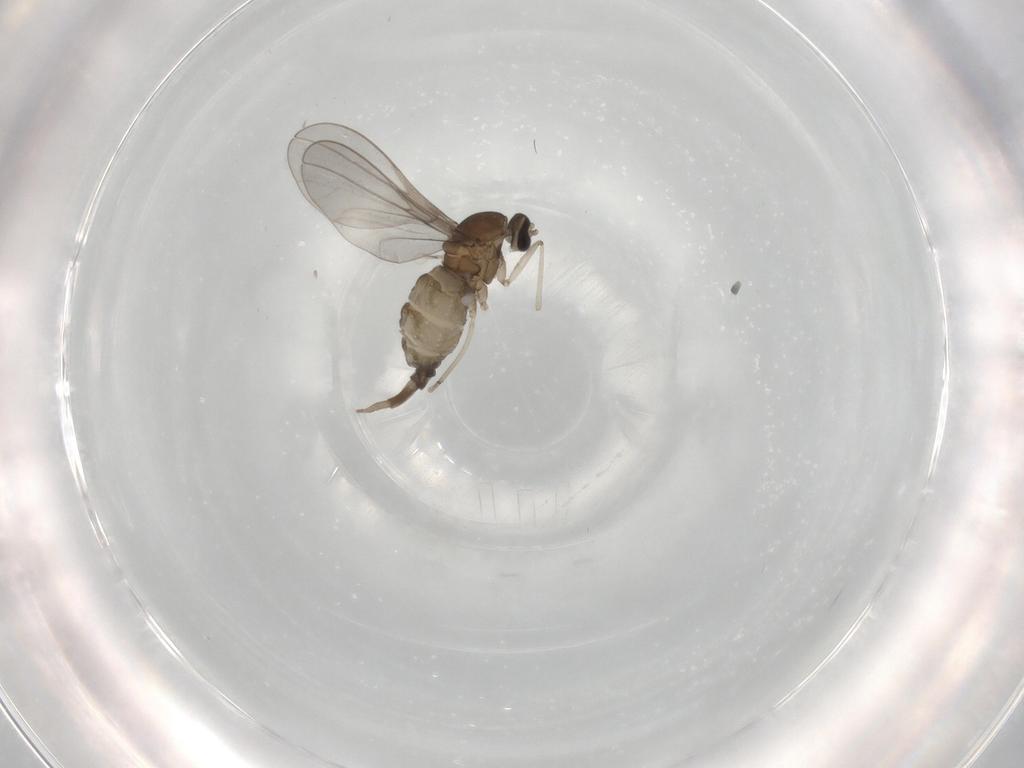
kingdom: Animalia
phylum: Arthropoda
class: Insecta
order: Diptera
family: Cecidomyiidae
